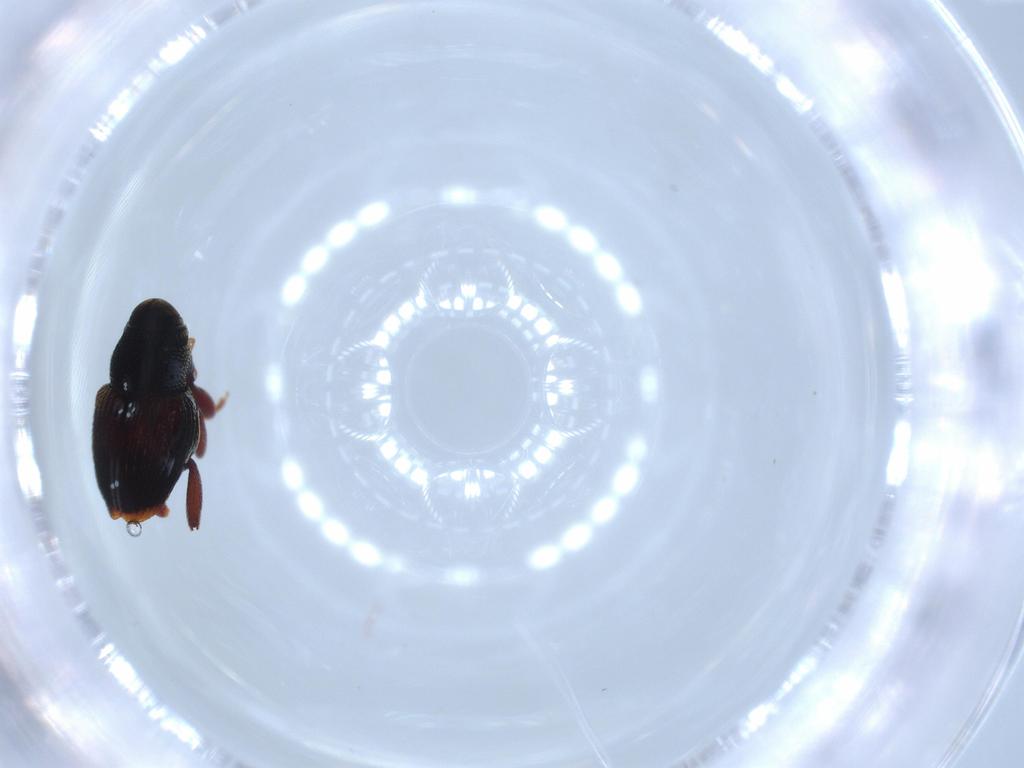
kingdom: Animalia
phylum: Arthropoda
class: Insecta
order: Coleoptera
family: Curculionidae
